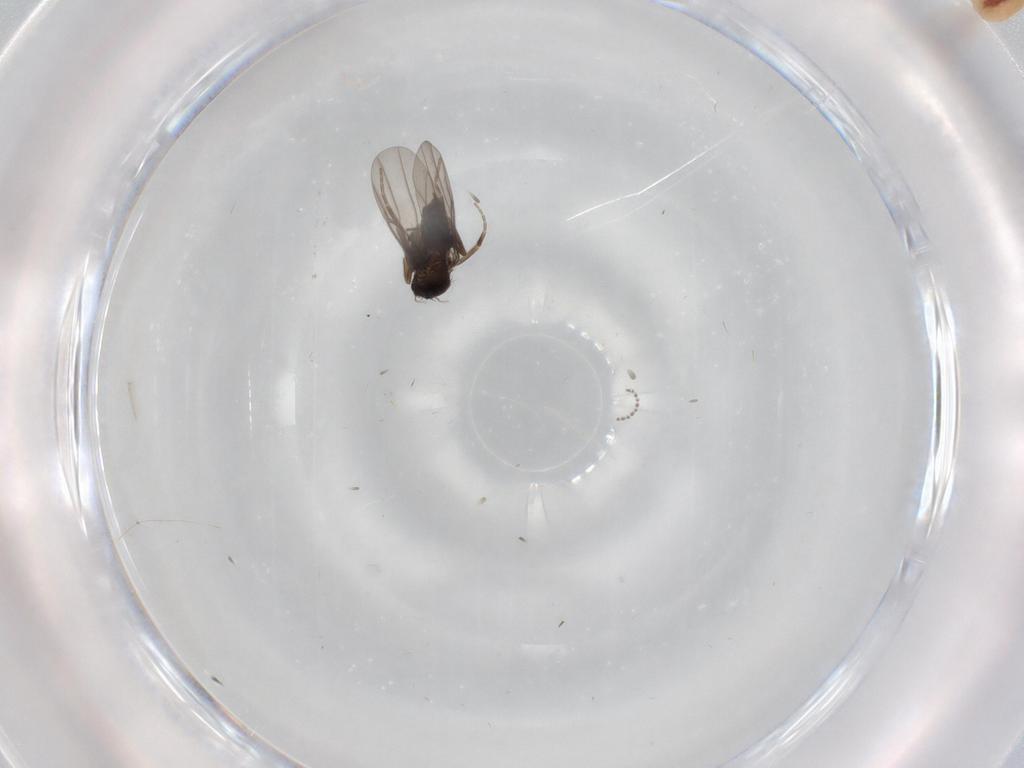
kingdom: Animalia
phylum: Arthropoda
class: Insecta
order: Diptera
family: Phoridae
